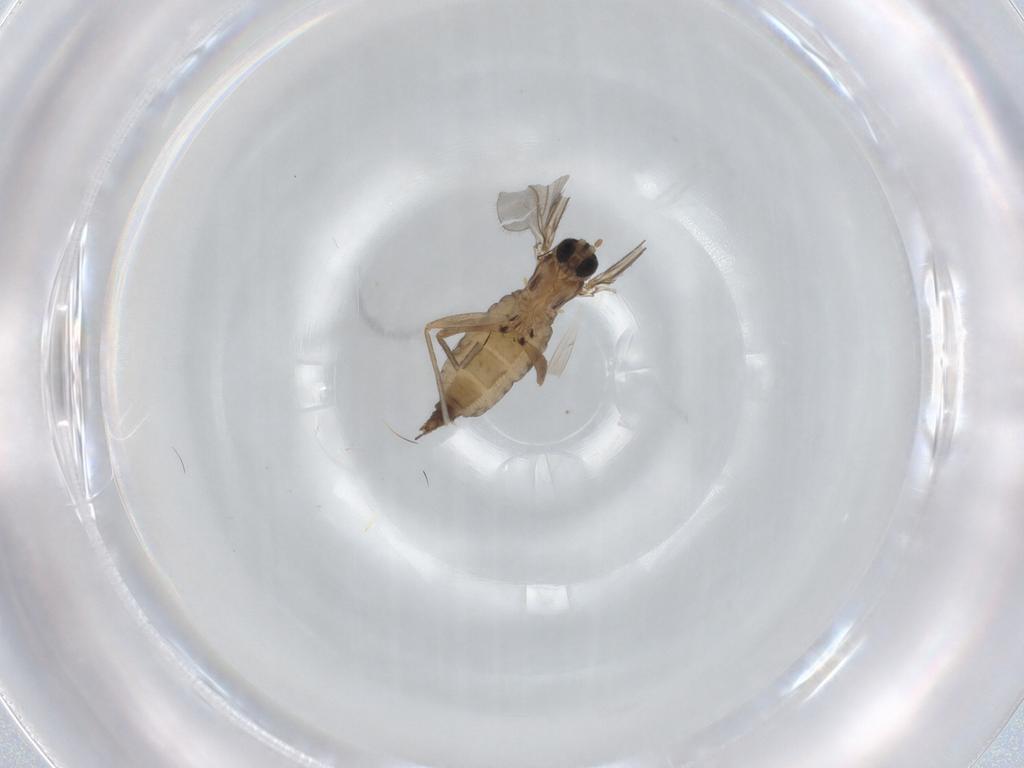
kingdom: Animalia
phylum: Arthropoda
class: Insecta
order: Diptera
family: Sciaridae
